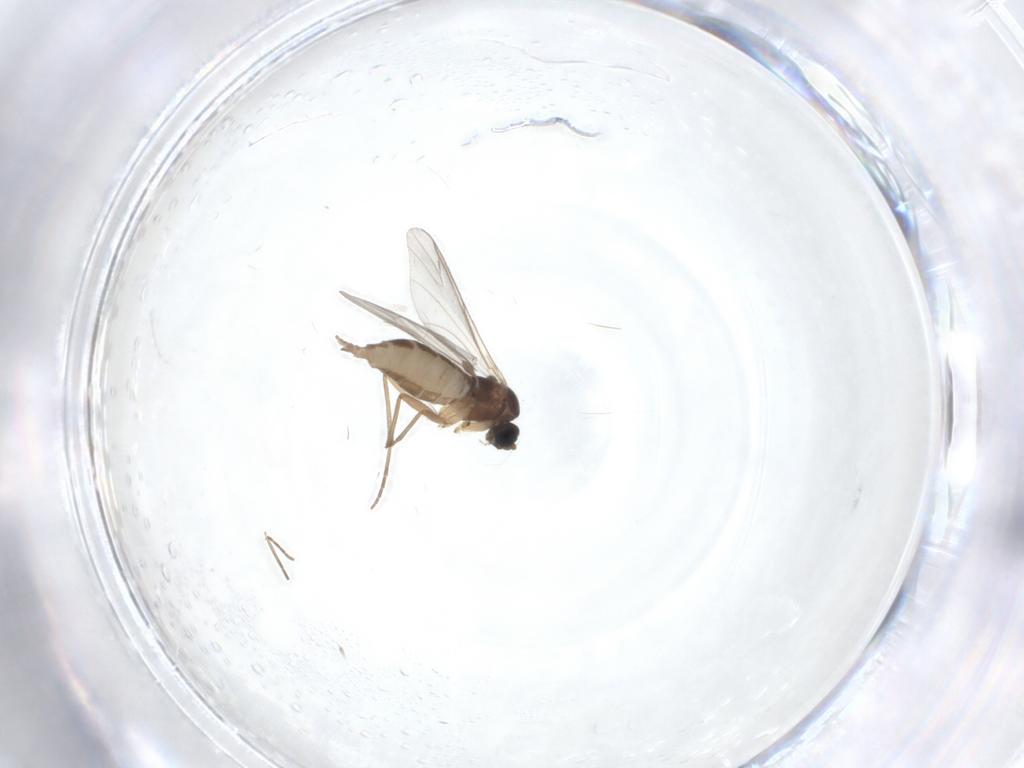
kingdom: Animalia
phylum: Arthropoda
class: Insecta
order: Diptera
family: Sciaridae
